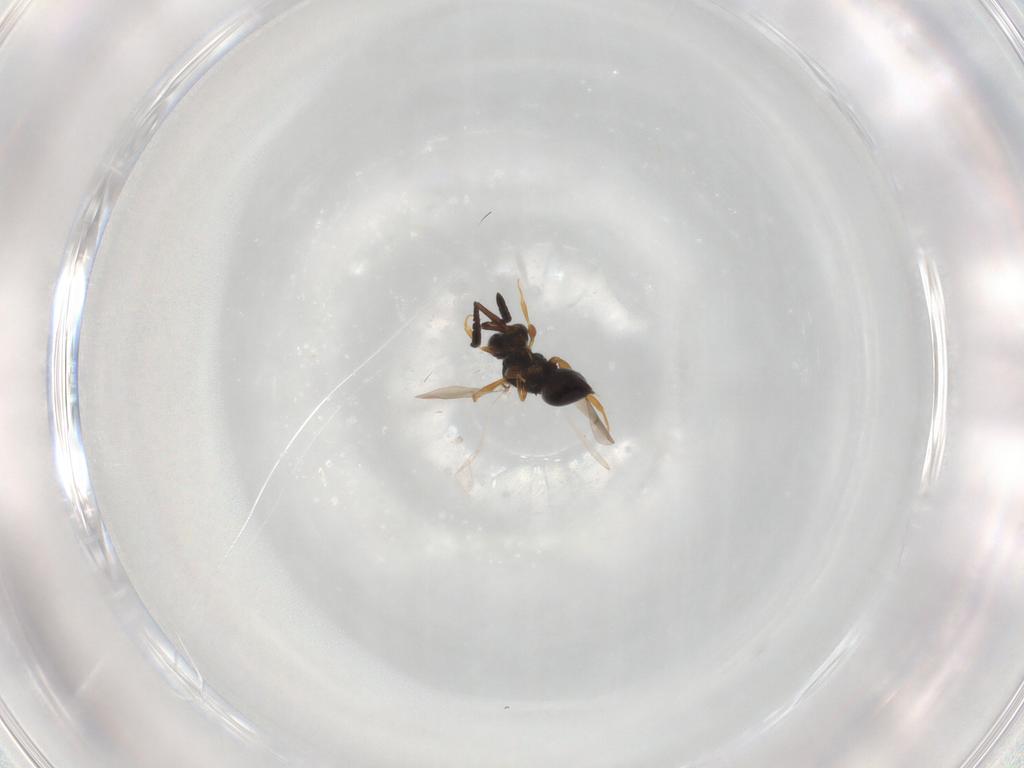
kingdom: Animalia
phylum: Arthropoda
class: Insecta
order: Hymenoptera
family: Ceraphronidae
